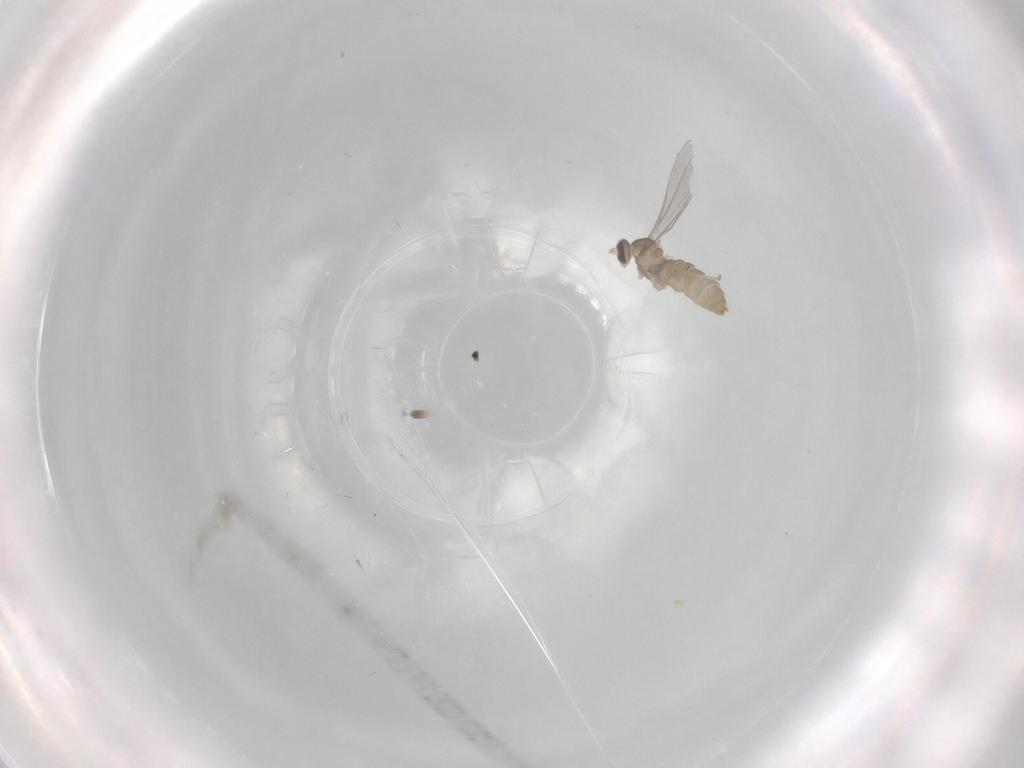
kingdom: Animalia
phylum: Arthropoda
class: Insecta
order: Diptera
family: Cecidomyiidae
